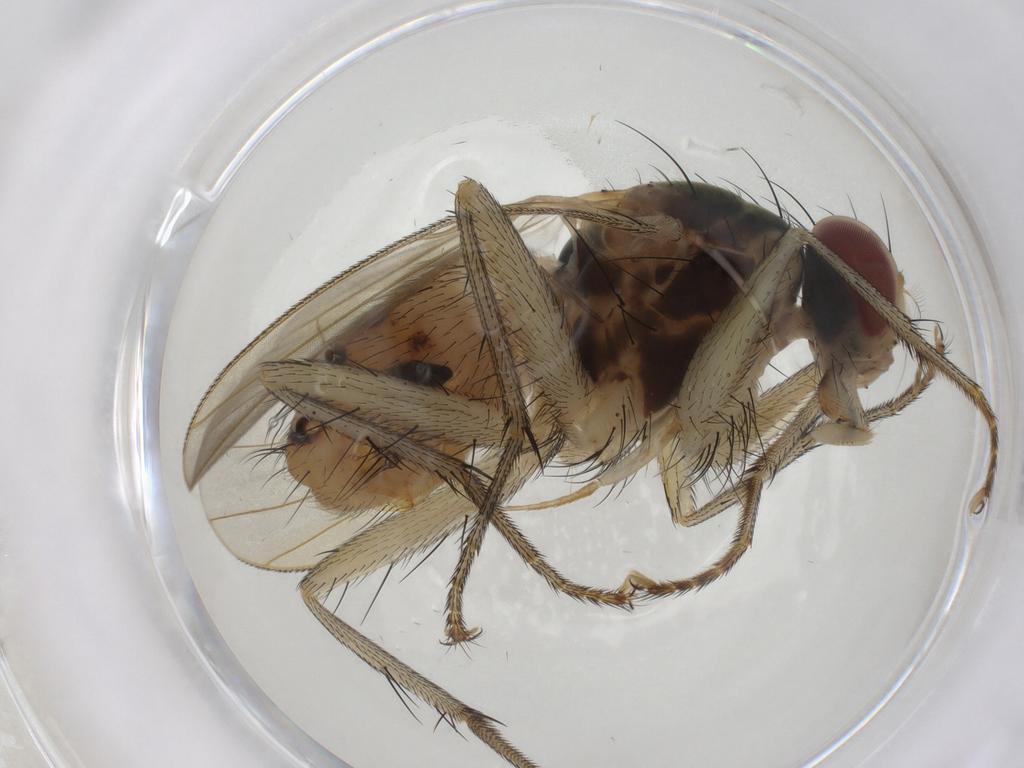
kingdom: Animalia
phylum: Arthropoda
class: Insecta
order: Diptera
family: Muscidae
